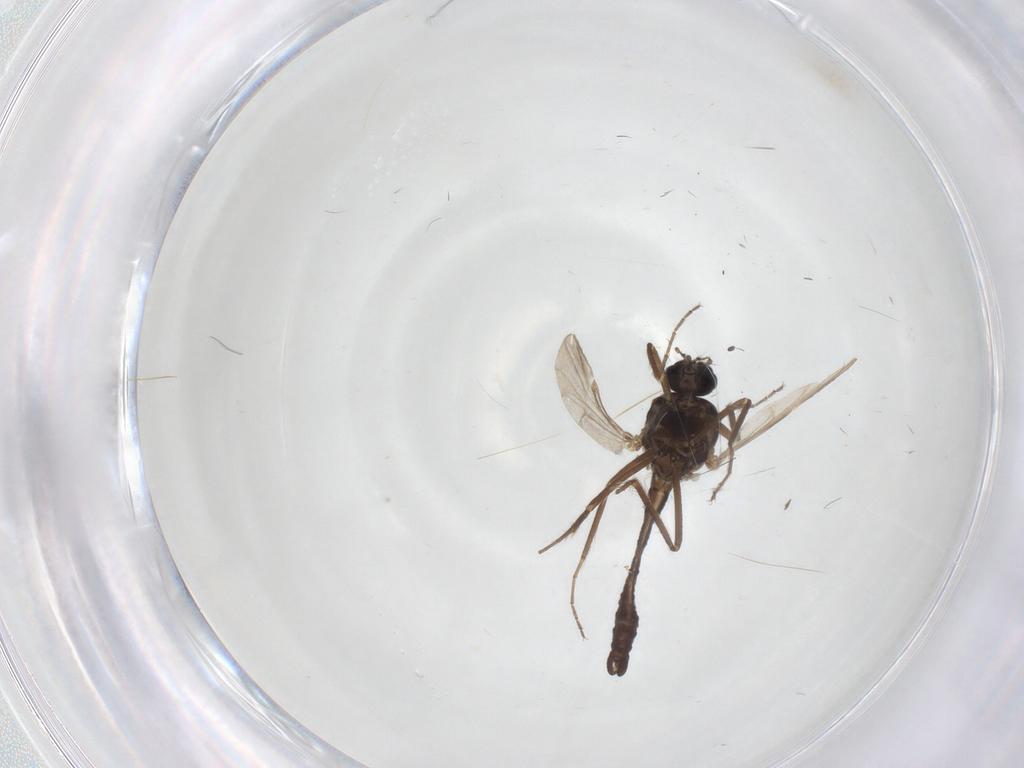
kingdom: Animalia
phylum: Arthropoda
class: Insecta
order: Diptera
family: Ceratopogonidae
